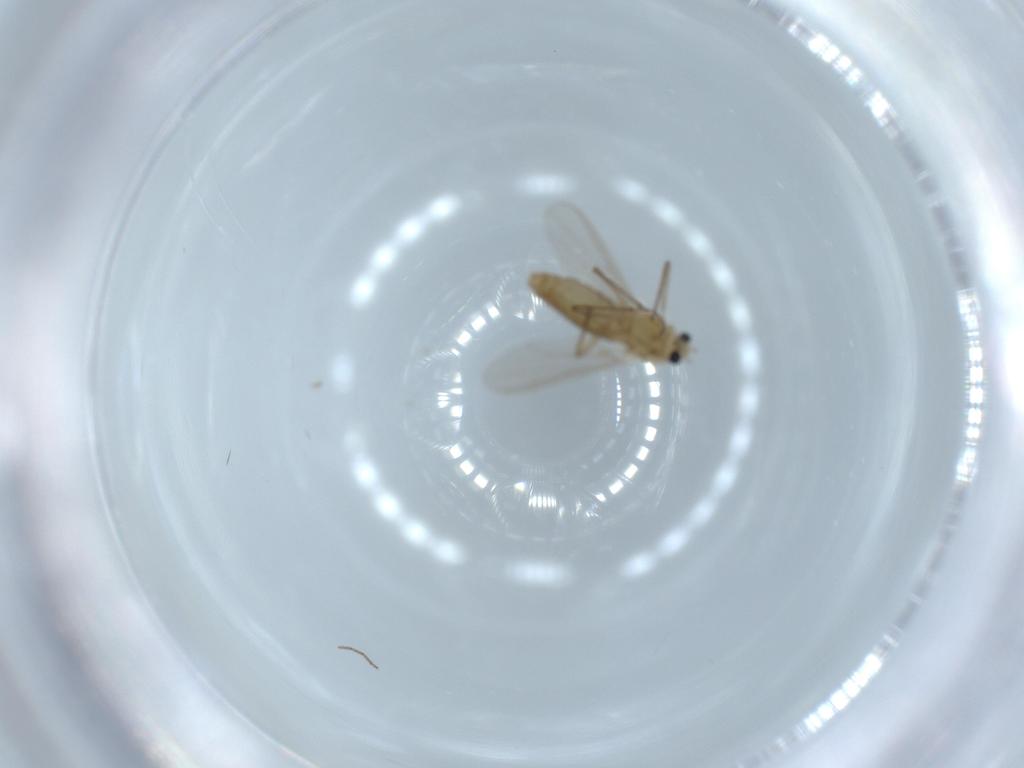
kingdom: Animalia
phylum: Arthropoda
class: Insecta
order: Diptera
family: Chironomidae
